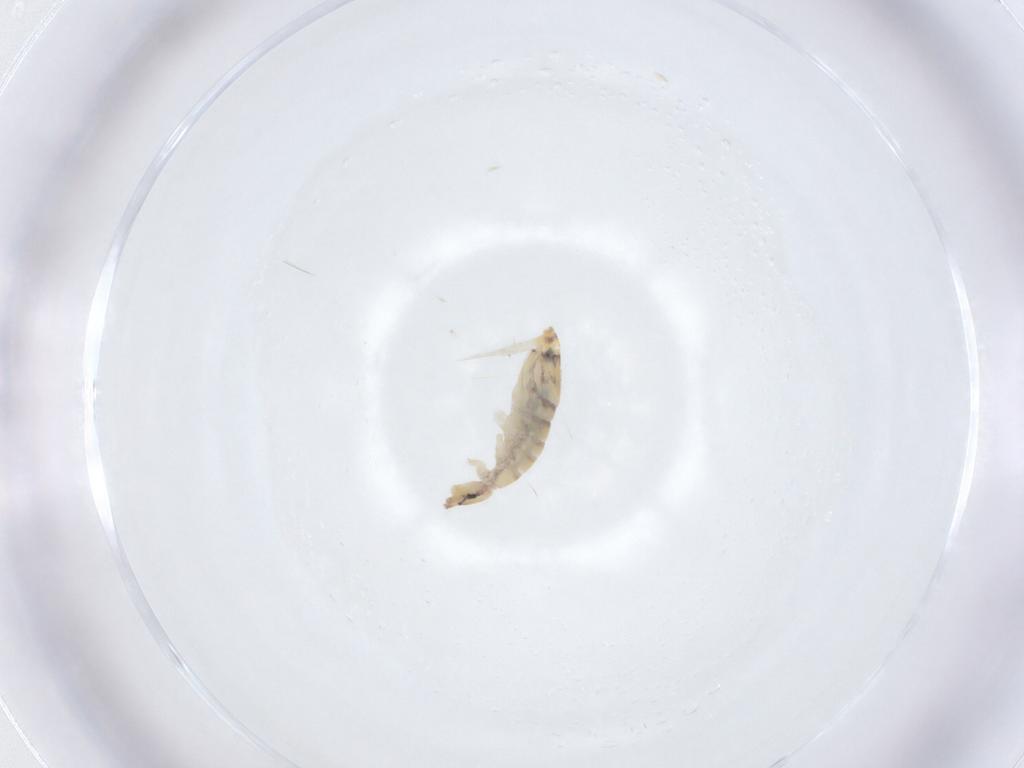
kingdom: Animalia
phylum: Arthropoda
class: Collembola
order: Entomobryomorpha
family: Entomobryidae
